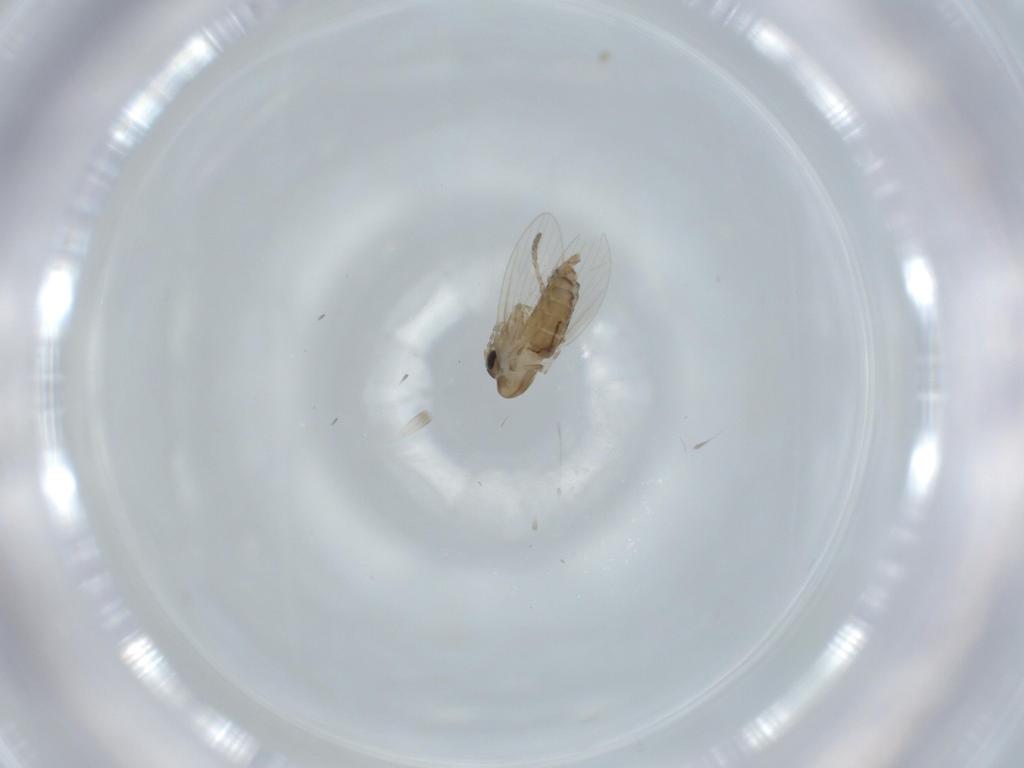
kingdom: Animalia
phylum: Arthropoda
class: Insecta
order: Diptera
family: Psychodidae
